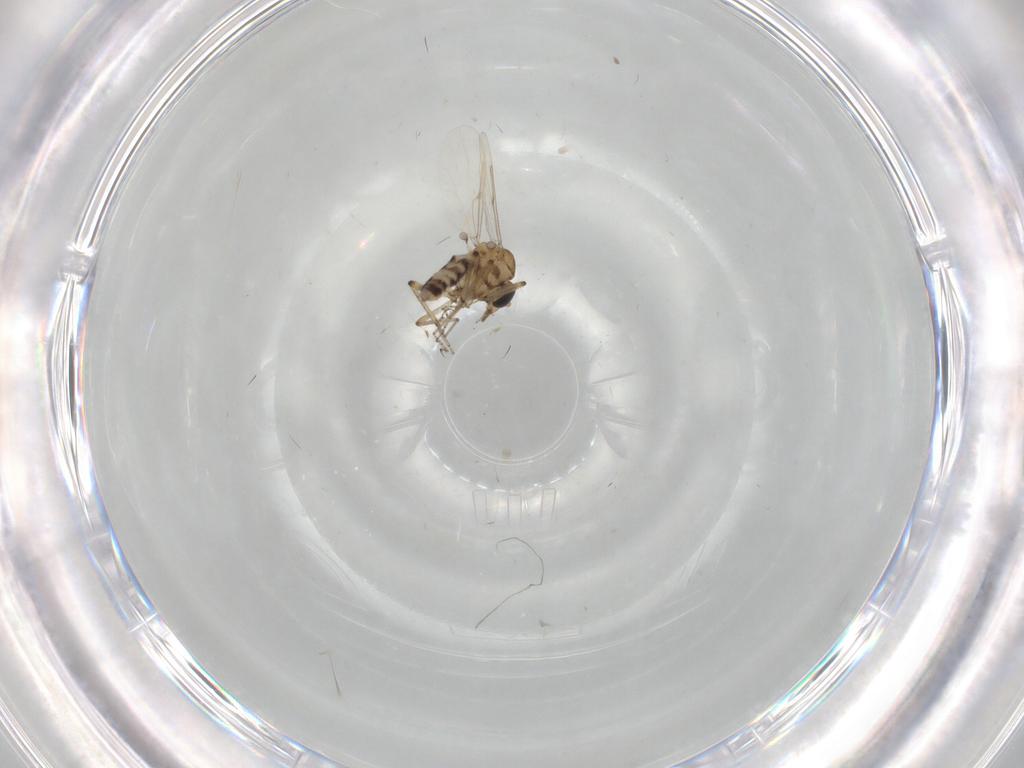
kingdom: Animalia
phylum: Arthropoda
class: Insecta
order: Diptera
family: Ceratopogonidae
